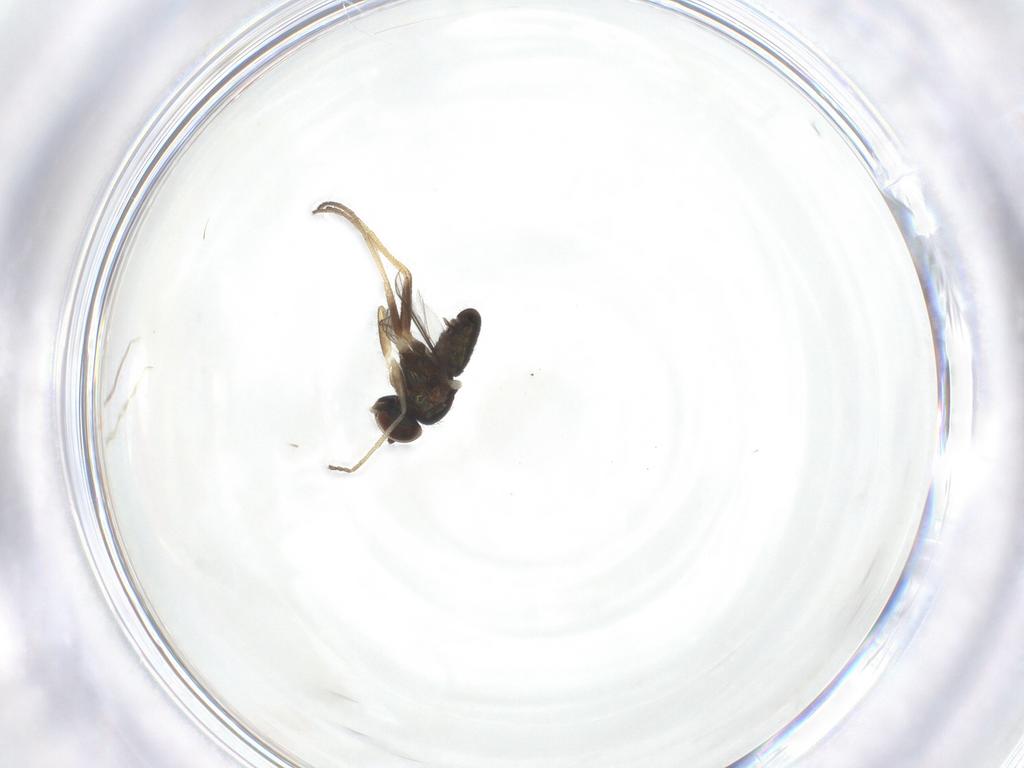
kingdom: Animalia
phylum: Arthropoda
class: Insecta
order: Diptera
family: Dolichopodidae
